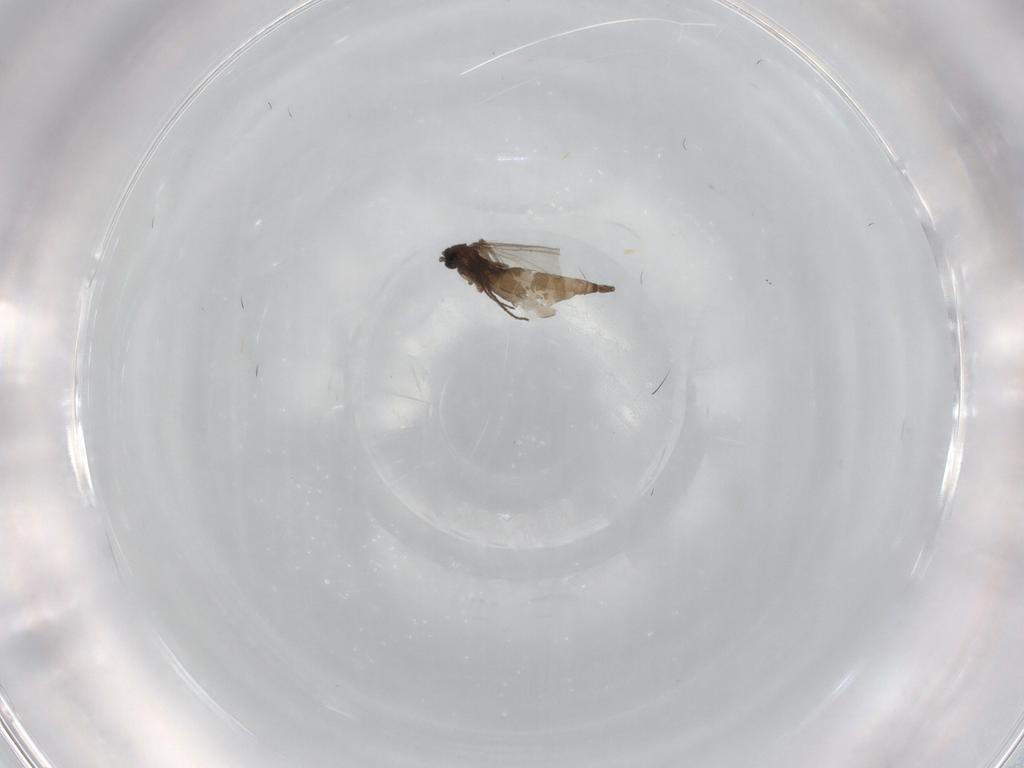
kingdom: Animalia
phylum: Arthropoda
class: Insecta
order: Diptera
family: Sciaridae
